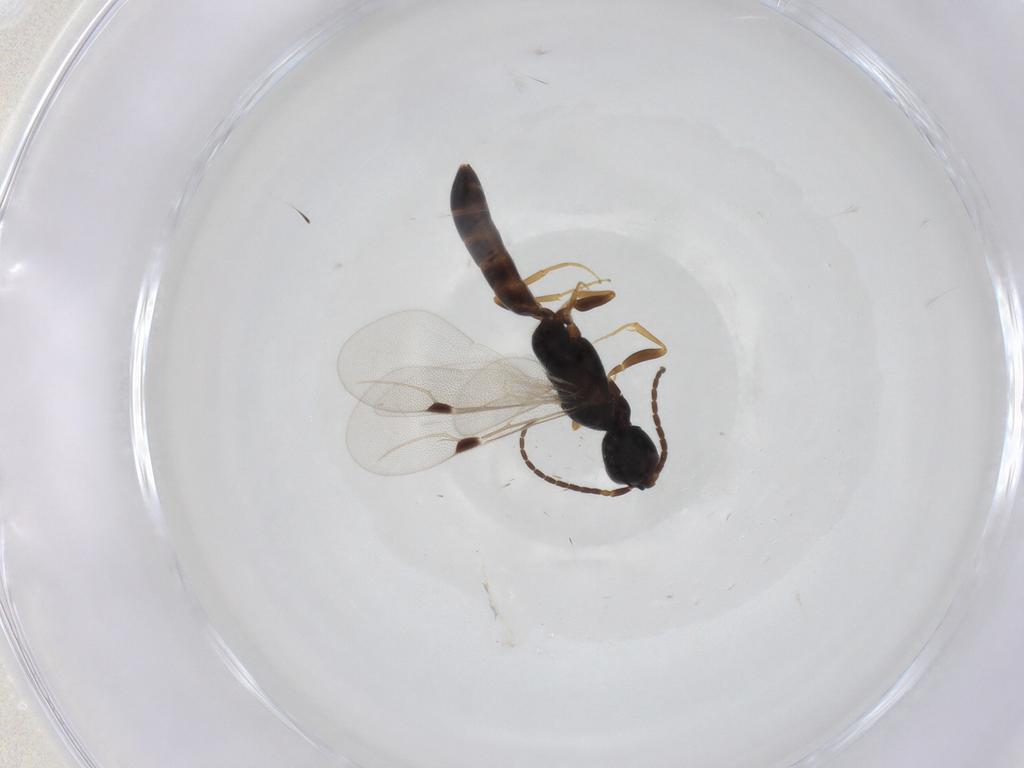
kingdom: Animalia
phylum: Arthropoda
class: Insecta
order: Hymenoptera
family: Bethylidae
